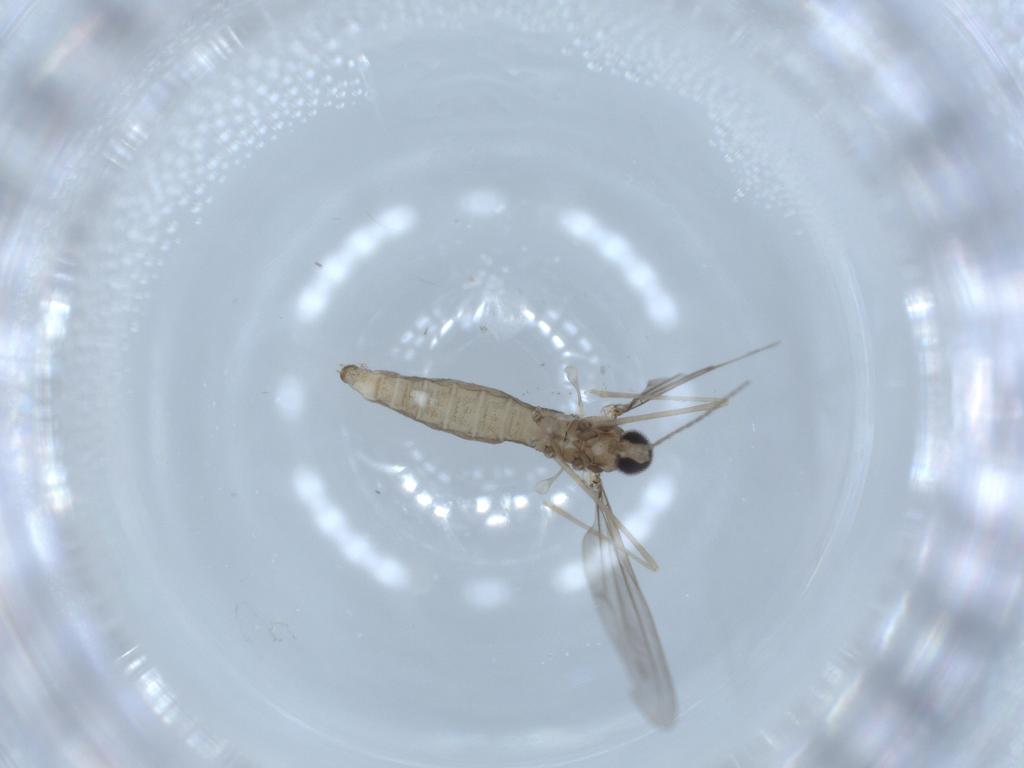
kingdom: Animalia
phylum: Arthropoda
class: Insecta
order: Diptera
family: Cecidomyiidae
